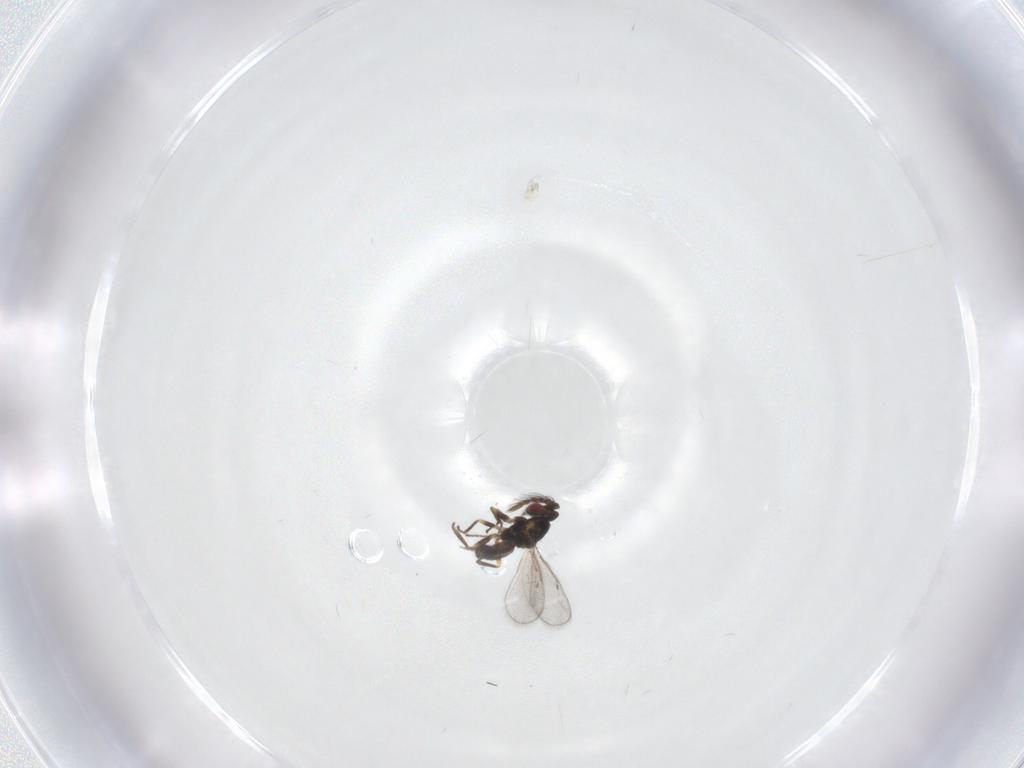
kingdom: Animalia
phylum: Arthropoda
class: Insecta
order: Hymenoptera
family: Eulophidae
